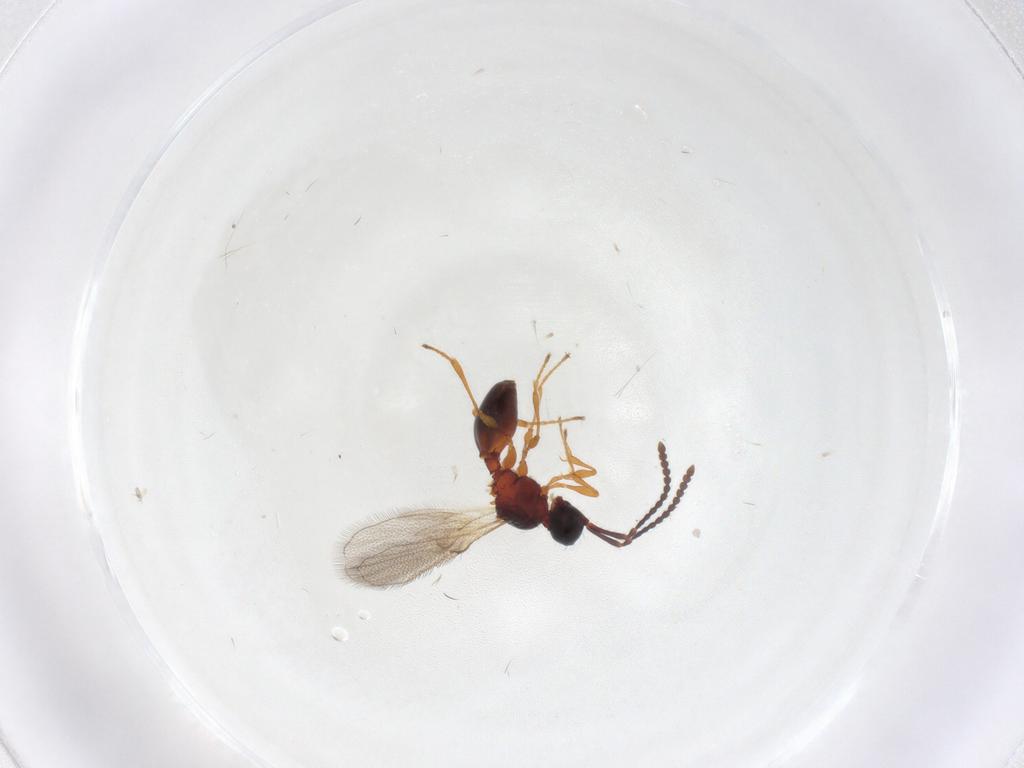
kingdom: Animalia
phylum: Arthropoda
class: Insecta
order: Hymenoptera
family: Diapriidae
